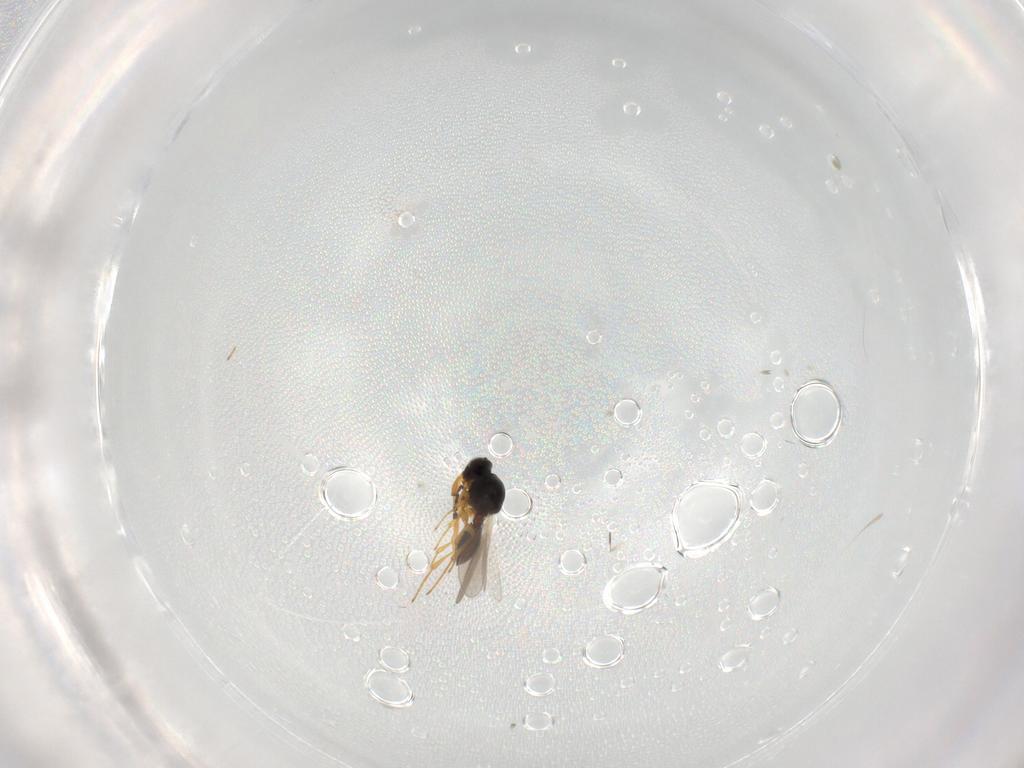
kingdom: Animalia
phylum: Arthropoda
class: Insecta
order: Hymenoptera
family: Platygastridae
